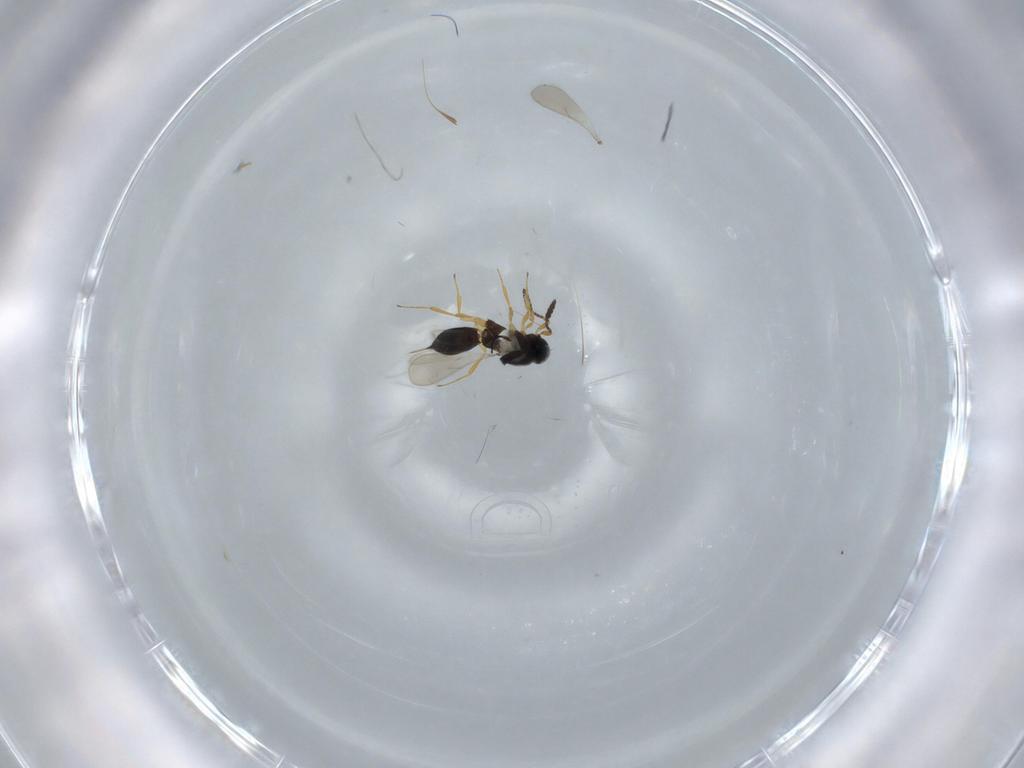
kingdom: Animalia
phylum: Arthropoda
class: Insecta
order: Hymenoptera
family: Scelionidae
